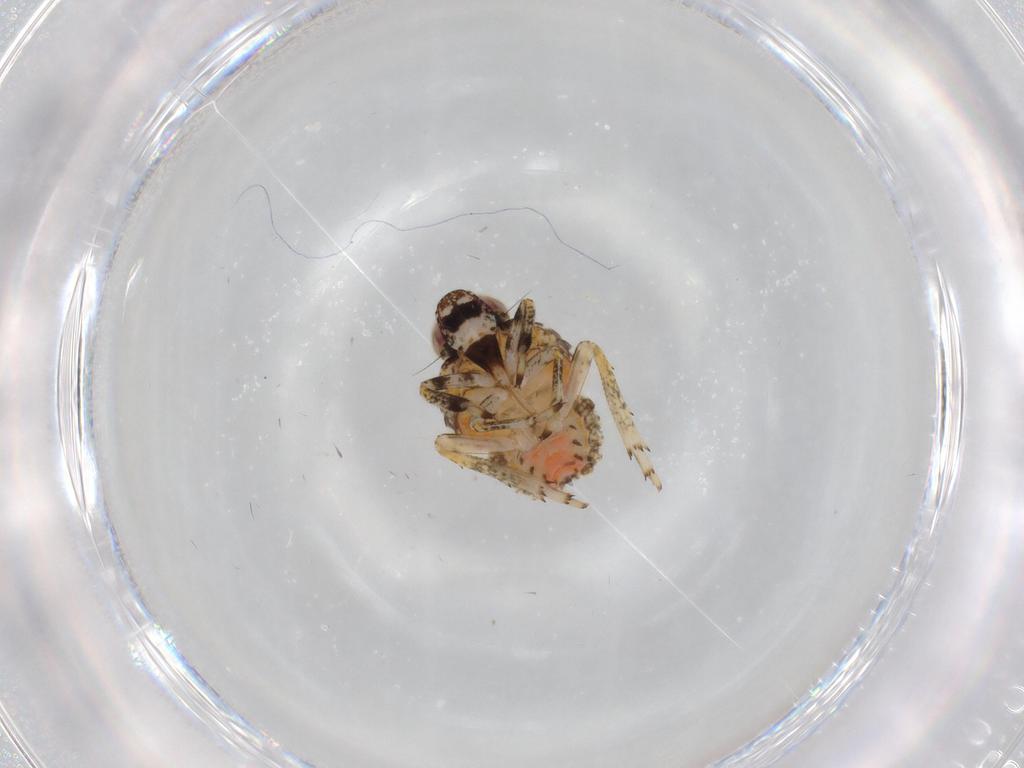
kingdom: Animalia
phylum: Arthropoda
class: Insecta
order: Hemiptera
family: Issidae
